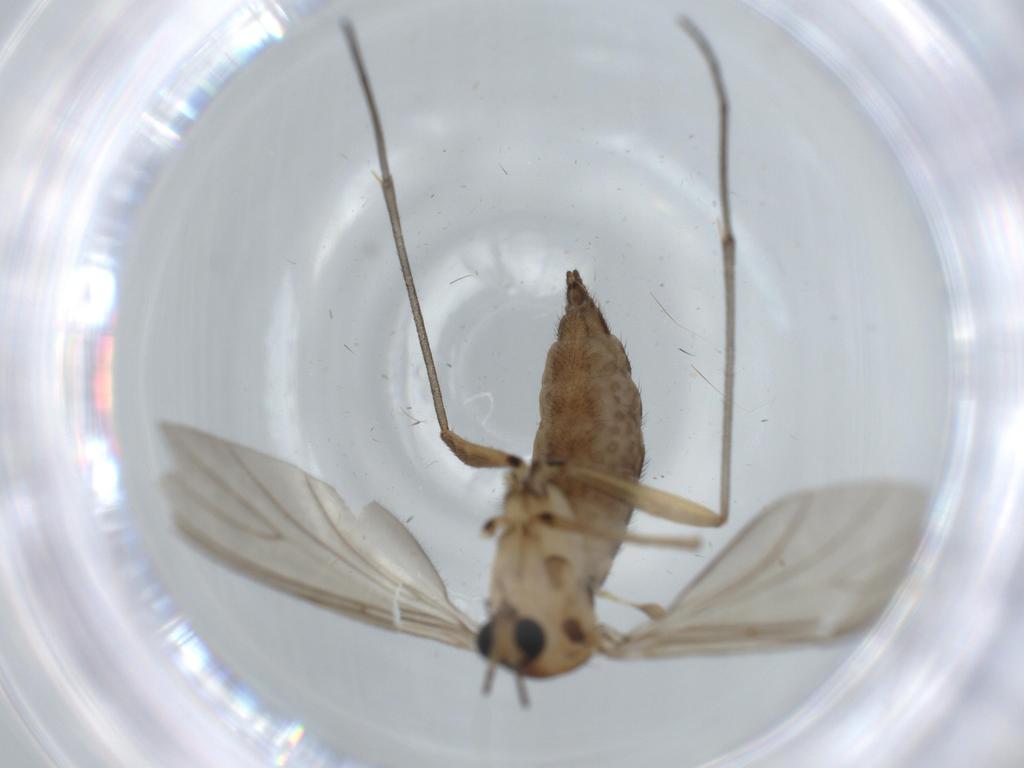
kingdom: Animalia
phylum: Arthropoda
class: Insecta
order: Diptera
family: Sciaridae
